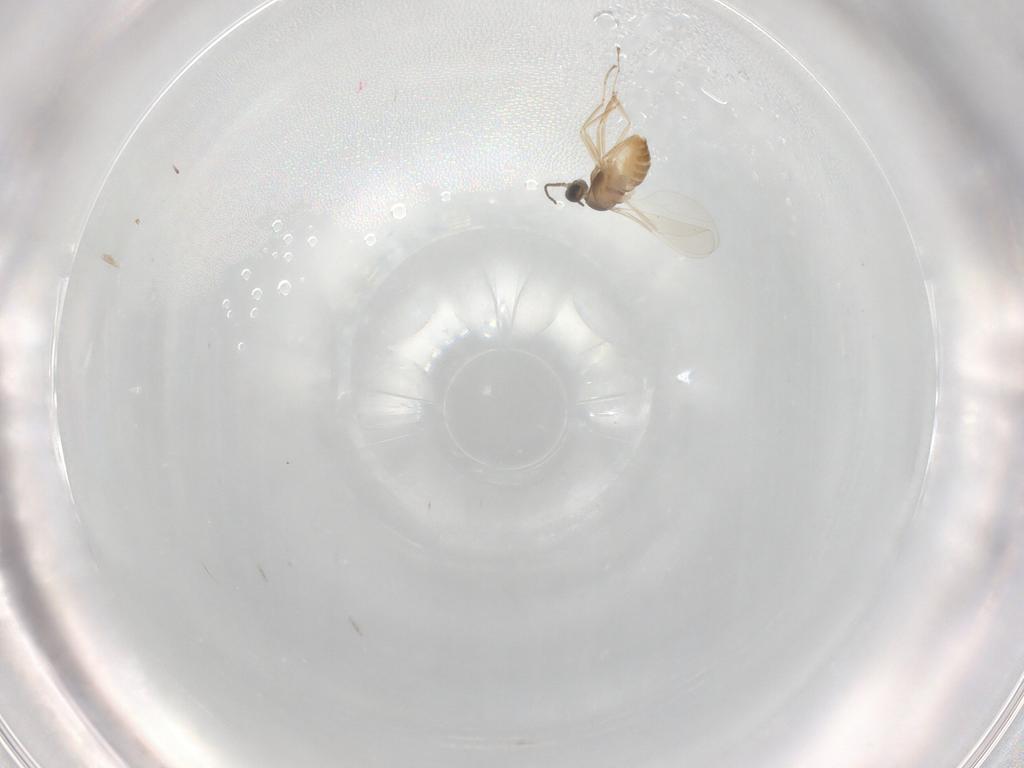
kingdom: Animalia
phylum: Arthropoda
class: Insecta
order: Diptera
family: Cecidomyiidae
